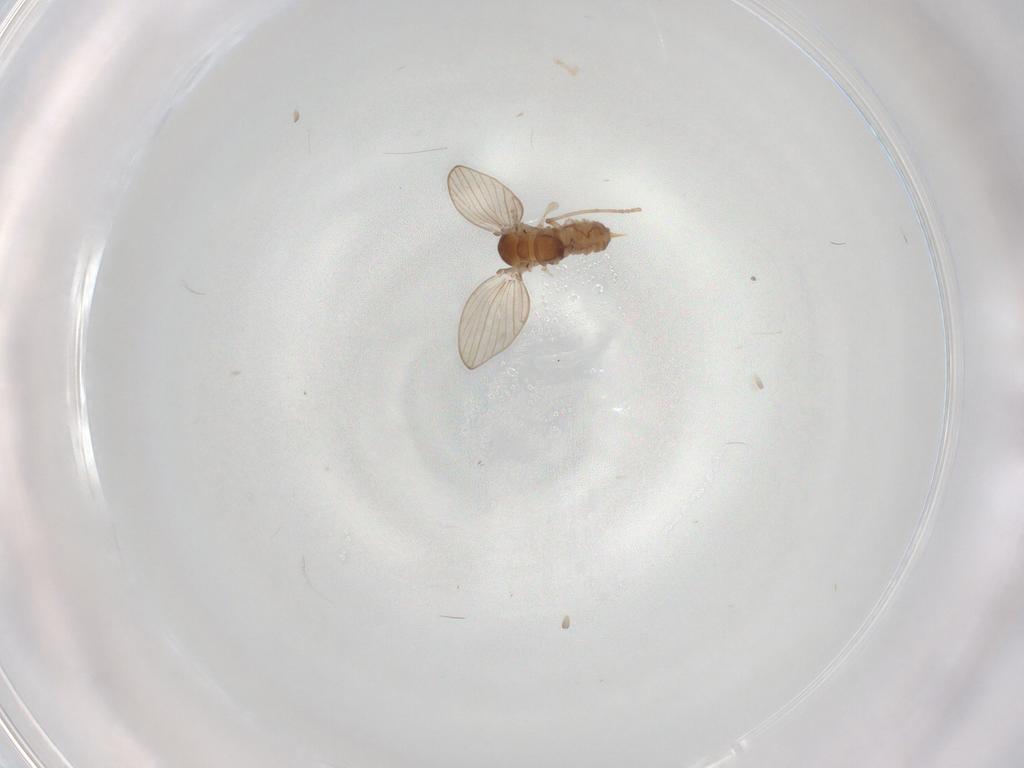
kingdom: Animalia
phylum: Arthropoda
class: Insecta
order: Diptera
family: Psychodidae
